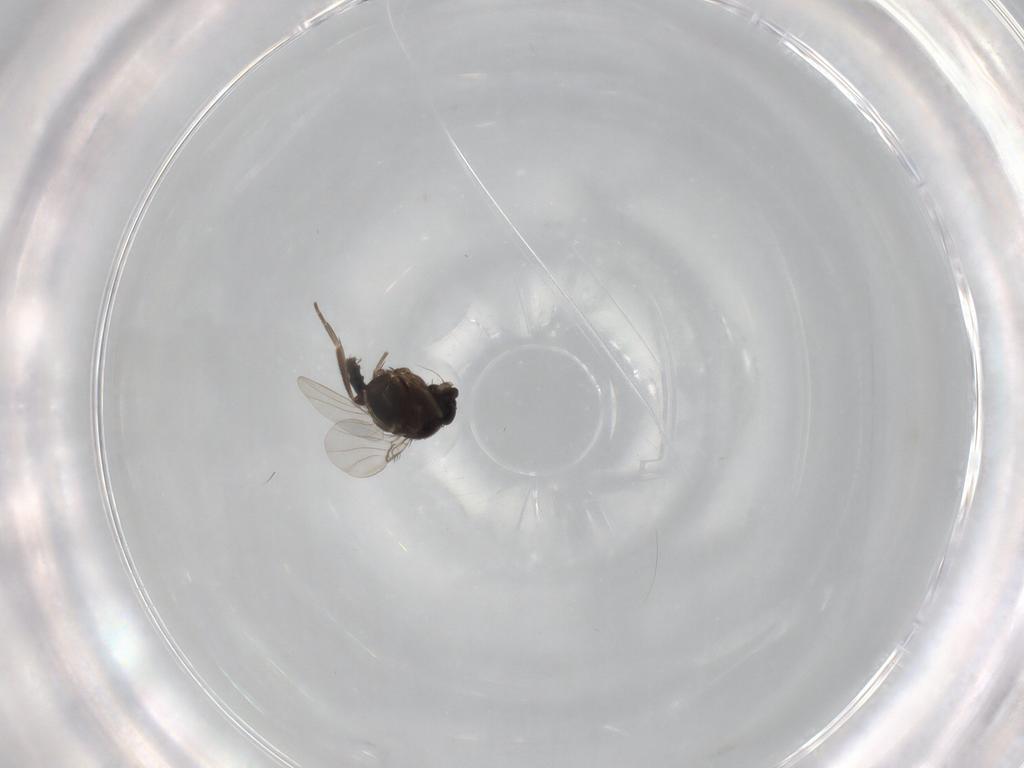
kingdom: Animalia
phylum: Arthropoda
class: Insecta
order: Diptera
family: Phoridae
